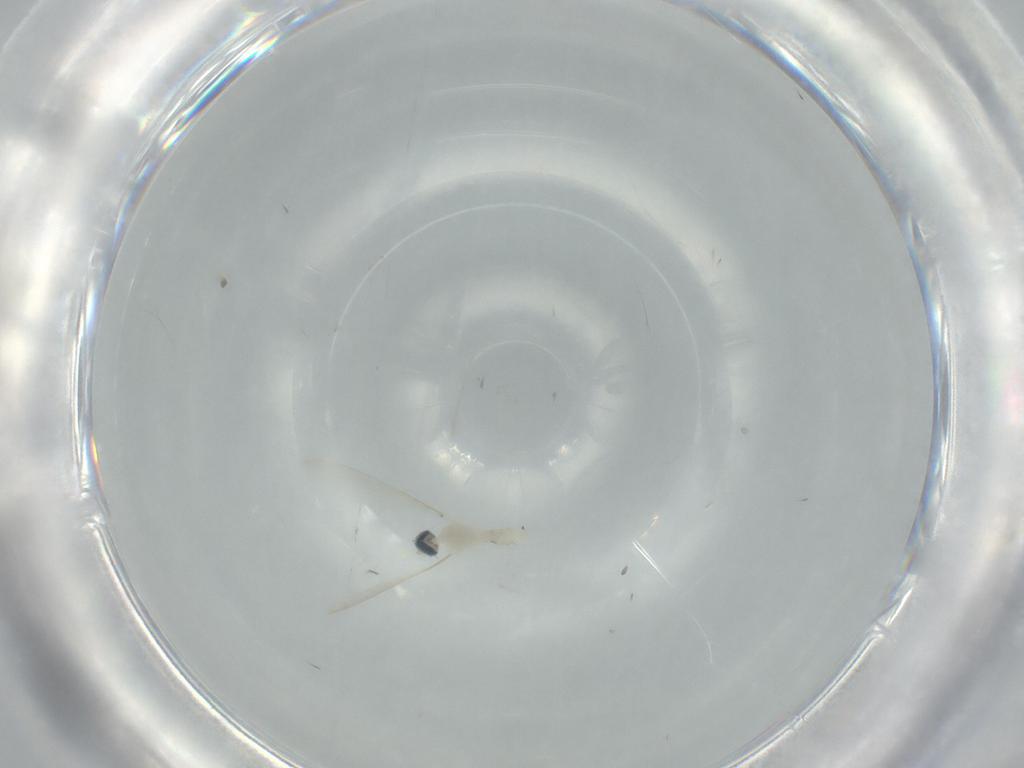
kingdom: Animalia
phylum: Arthropoda
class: Insecta
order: Diptera
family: Cecidomyiidae
